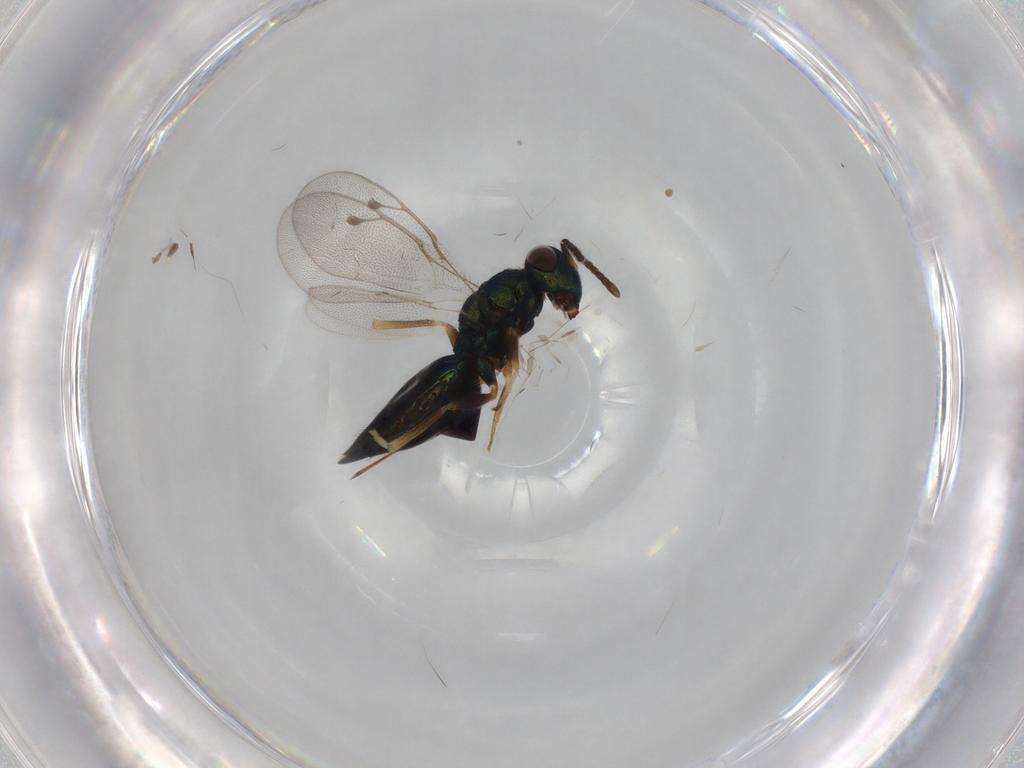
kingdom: Animalia
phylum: Arthropoda
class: Insecta
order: Hymenoptera
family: Pteromalidae
